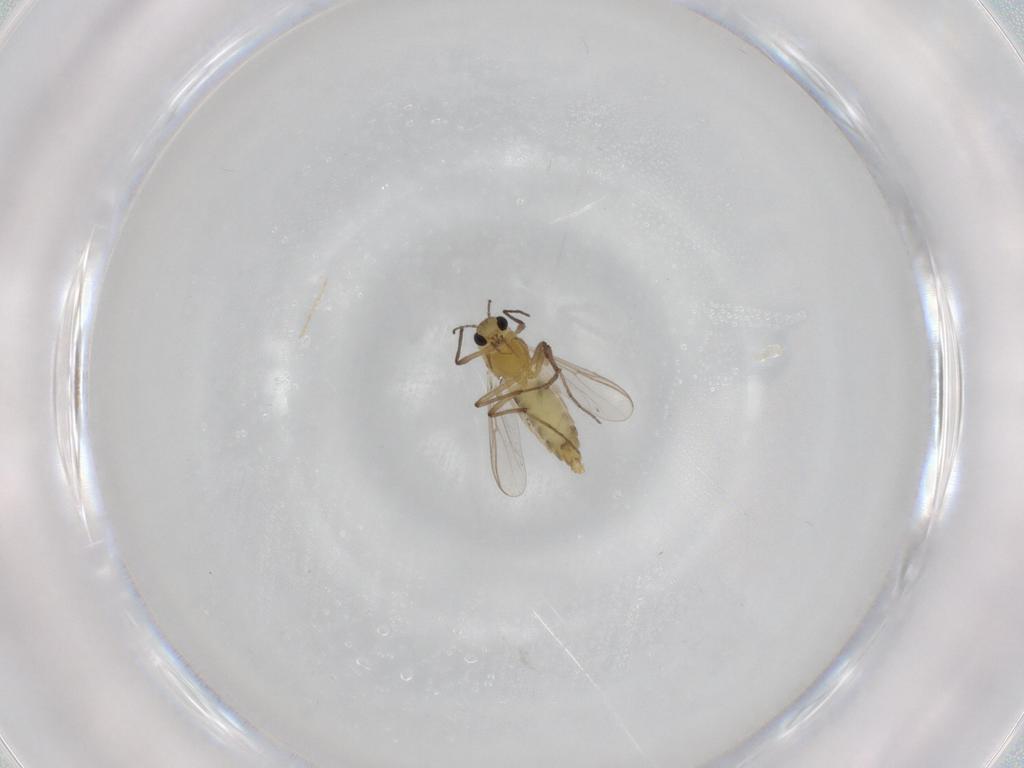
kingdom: Animalia
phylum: Arthropoda
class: Insecta
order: Diptera
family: Chironomidae
